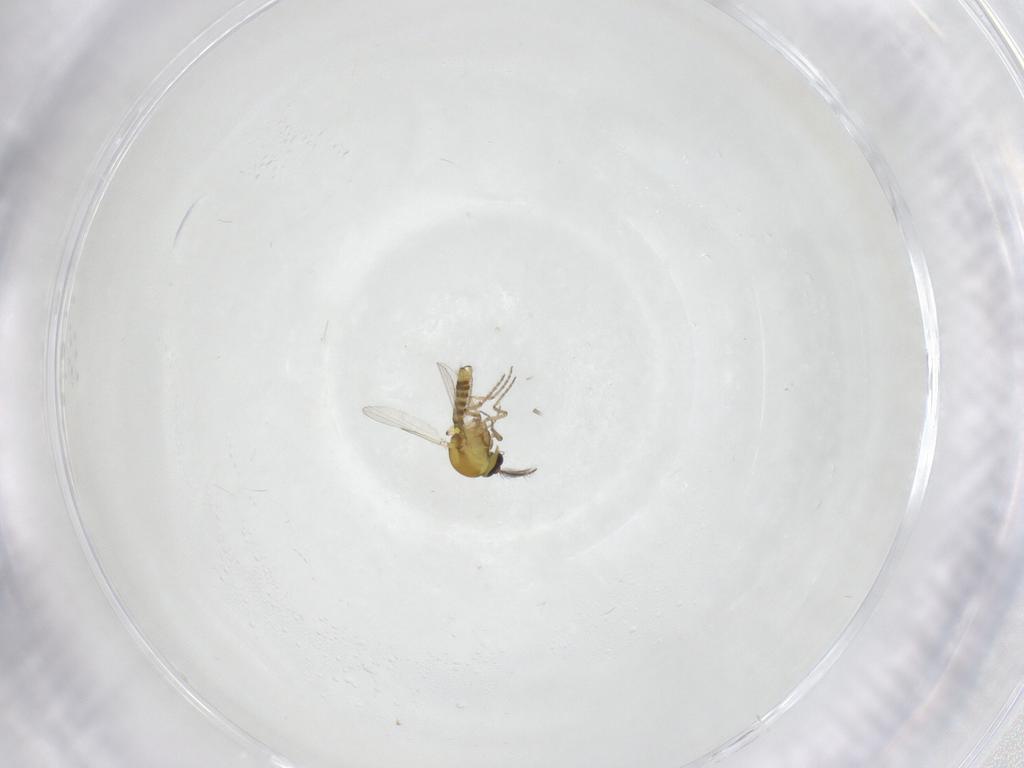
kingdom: Animalia
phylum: Arthropoda
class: Insecta
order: Diptera
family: Ceratopogonidae
